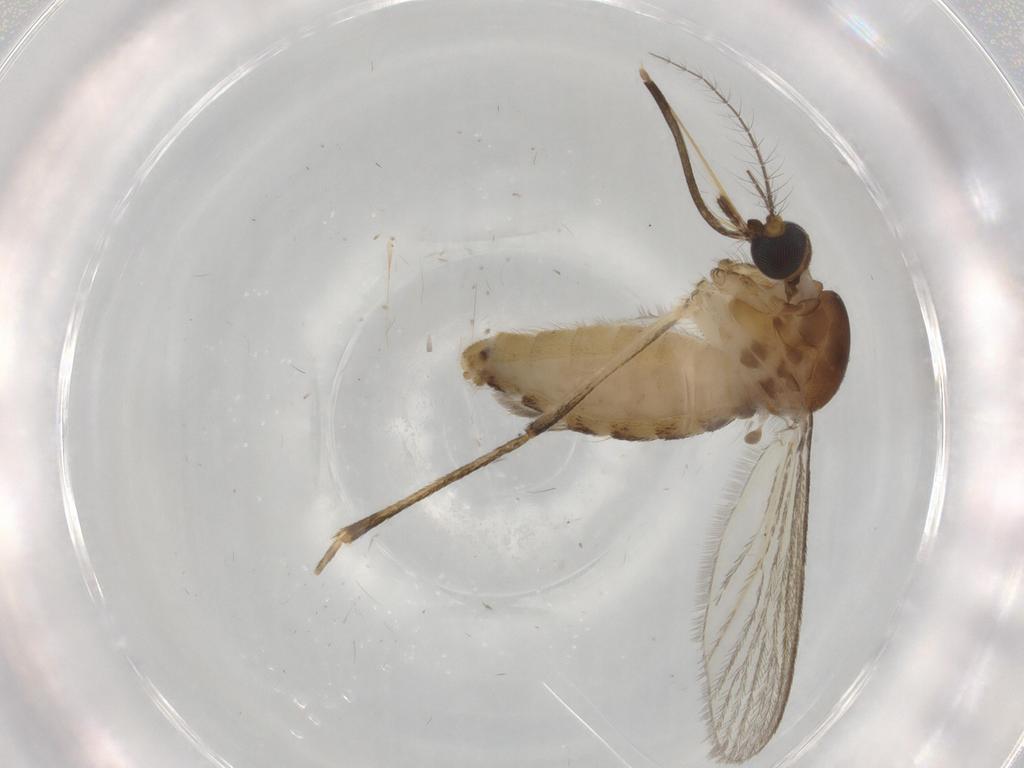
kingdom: Animalia
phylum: Arthropoda
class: Insecta
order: Diptera
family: Culicidae
